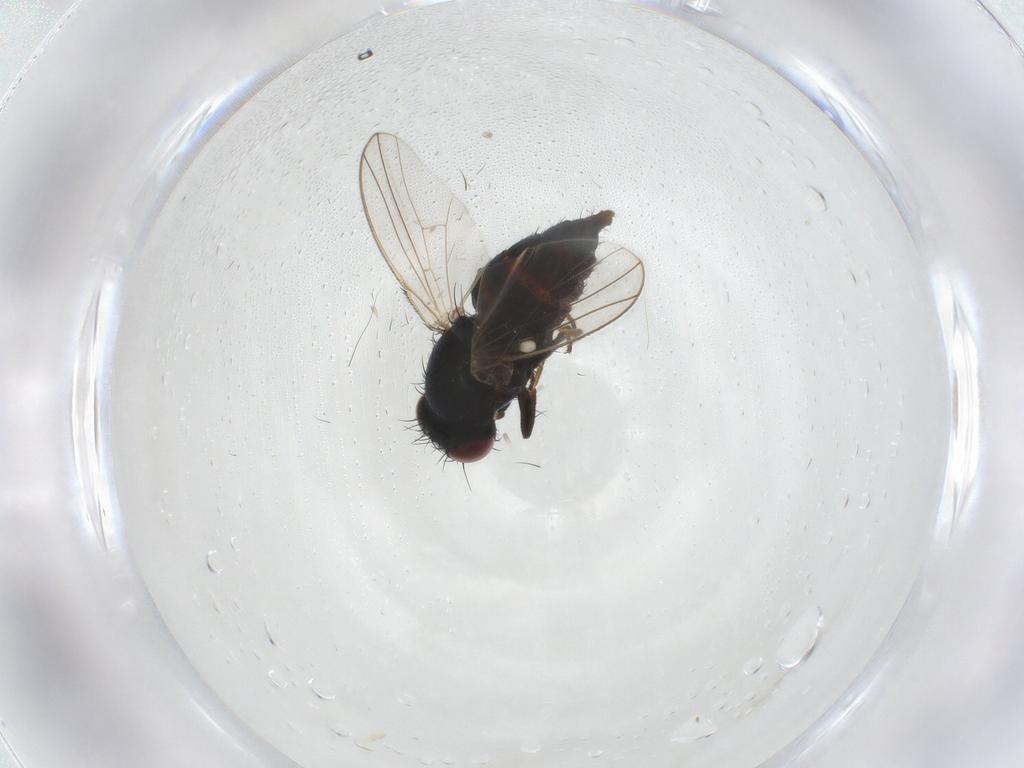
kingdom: Animalia
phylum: Arthropoda
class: Insecta
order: Diptera
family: Carnidae
